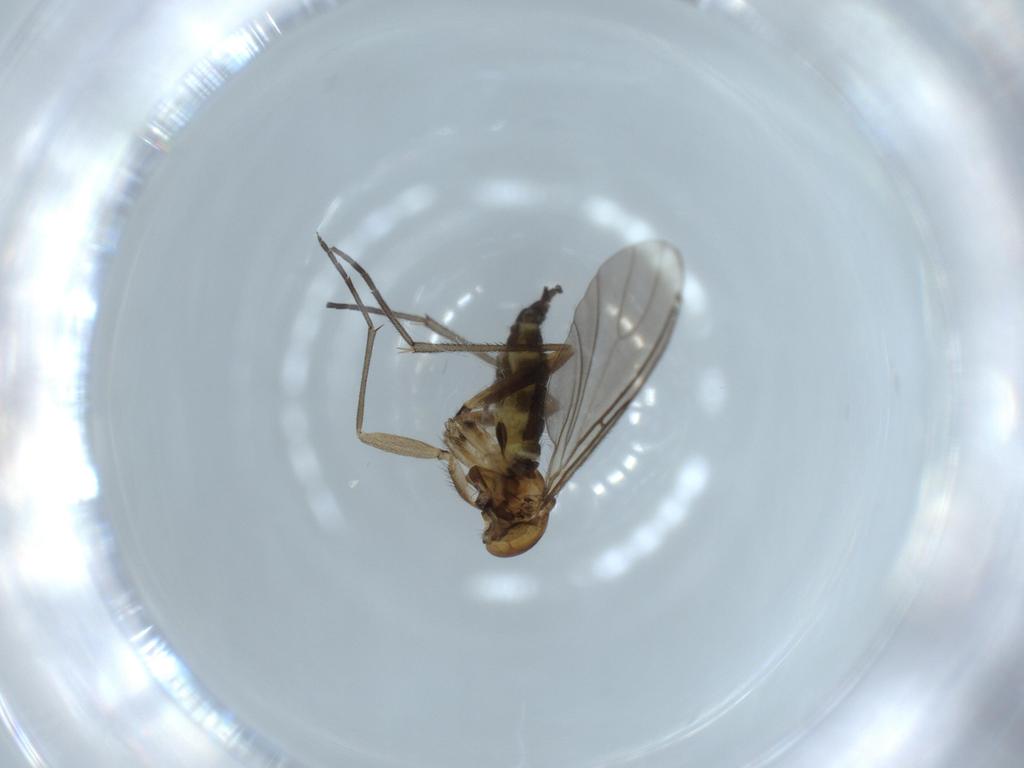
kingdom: Animalia
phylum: Arthropoda
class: Insecta
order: Diptera
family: Sciaridae
